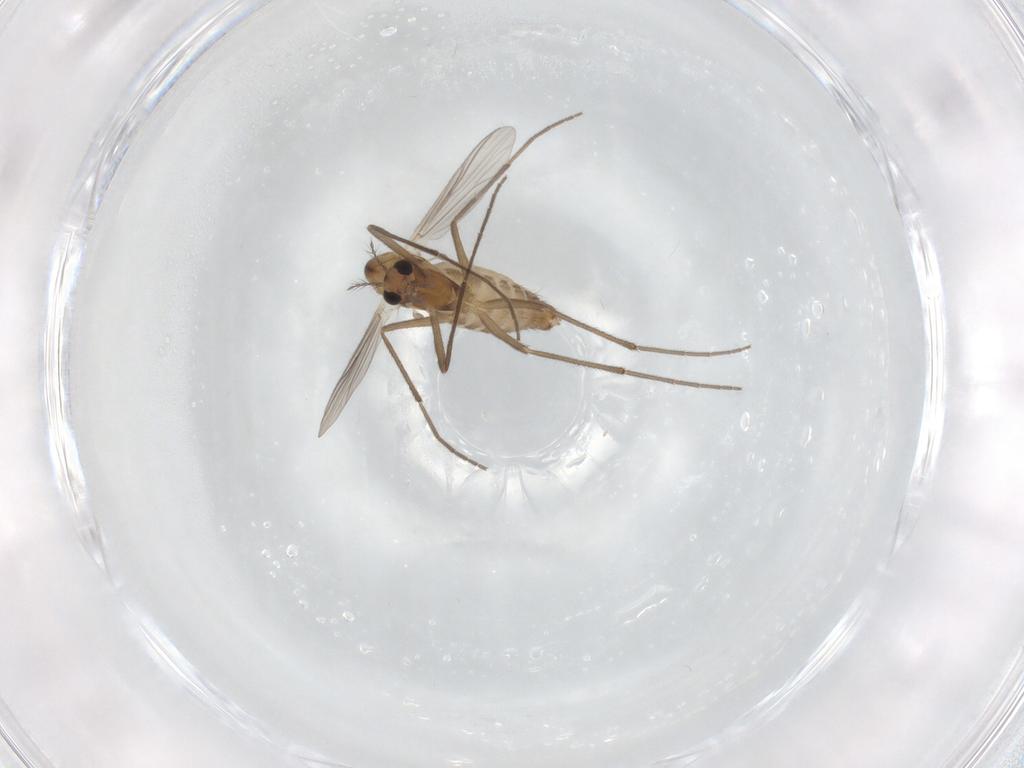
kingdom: Animalia
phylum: Arthropoda
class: Insecta
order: Diptera
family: Chironomidae
